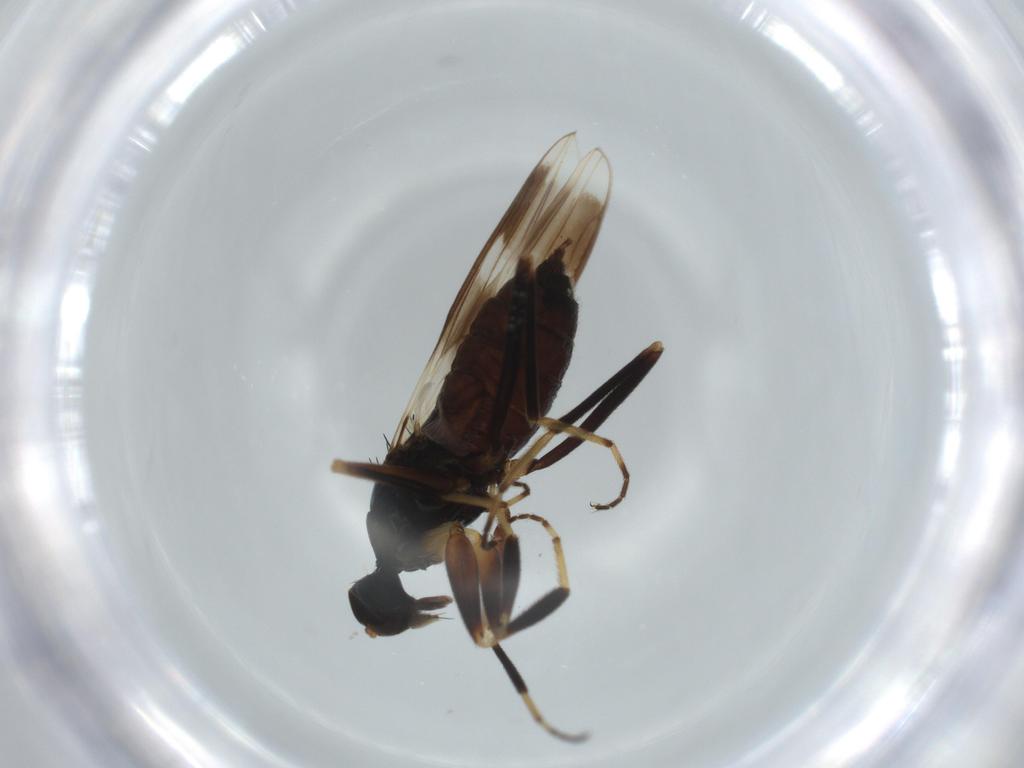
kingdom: Animalia
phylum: Arthropoda
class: Insecta
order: Diptera
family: Hybotidae
